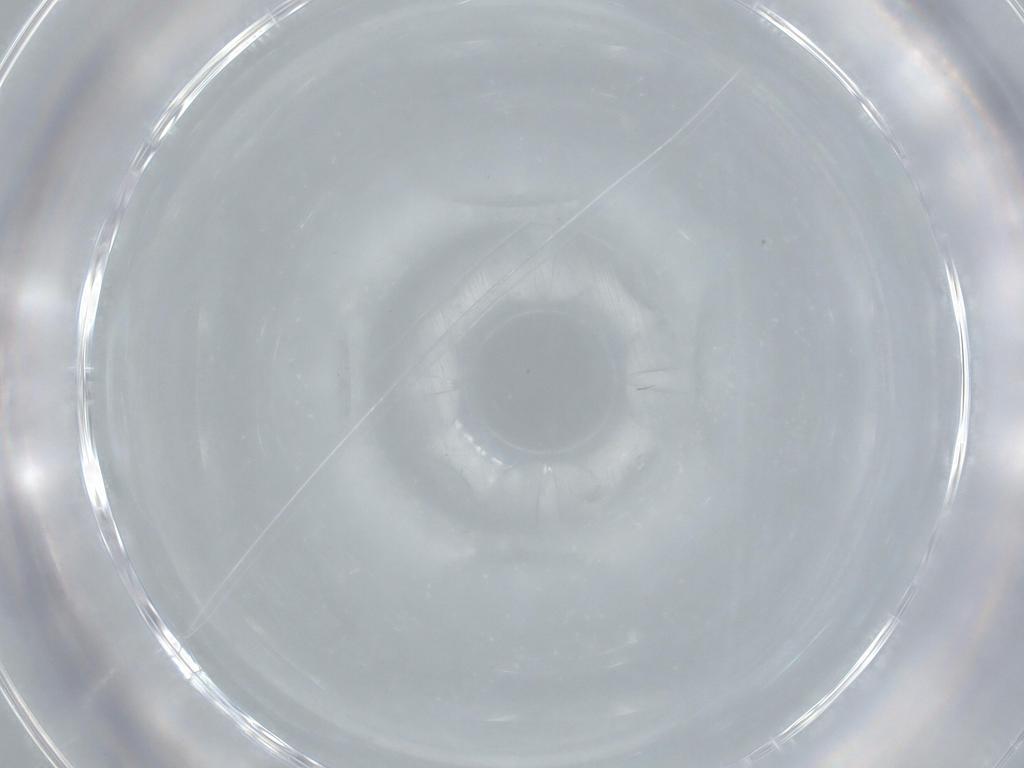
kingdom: Animalia
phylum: Arthropoda
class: Insecta
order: Diptera
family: Phoridae
